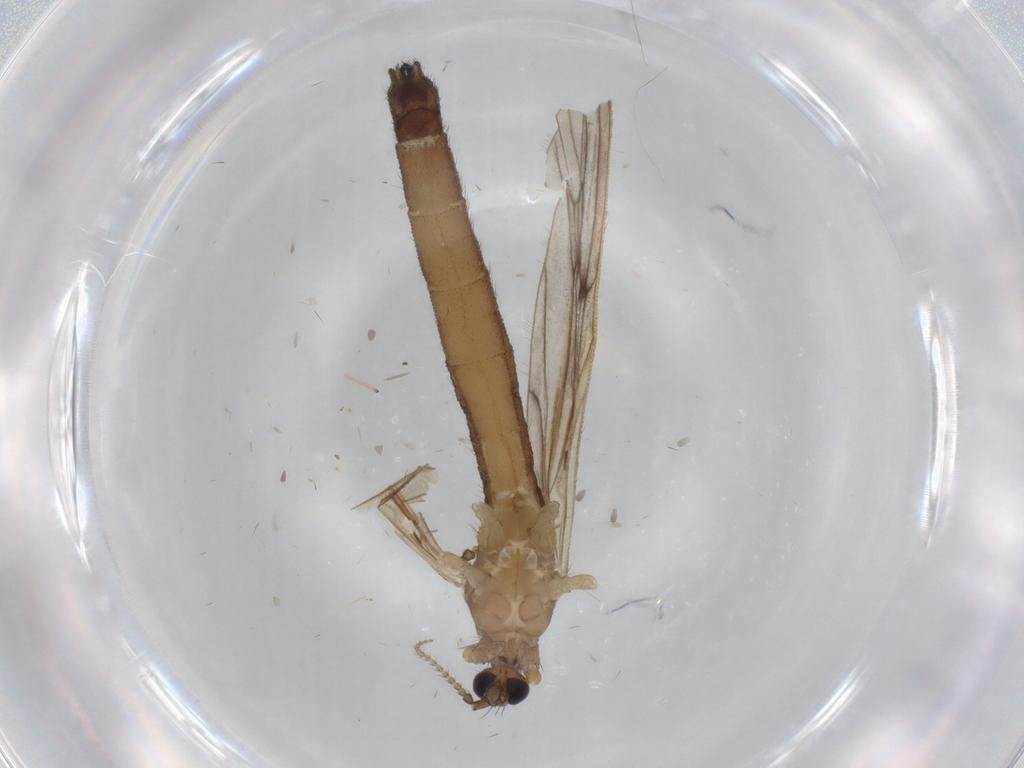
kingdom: Animalia
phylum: Arthropoda
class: Insecta
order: Diptera
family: Limoniidae
